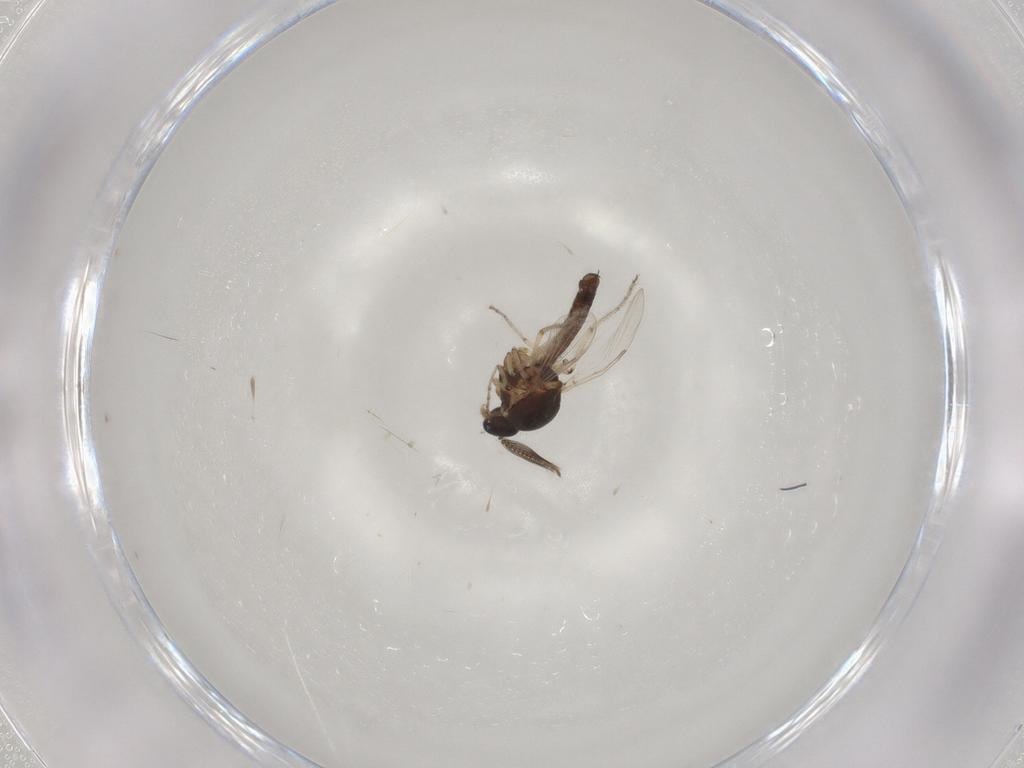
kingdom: Animalia
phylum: Arthropoda
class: Insecta
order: Diptera
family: Ceratopogonidae
